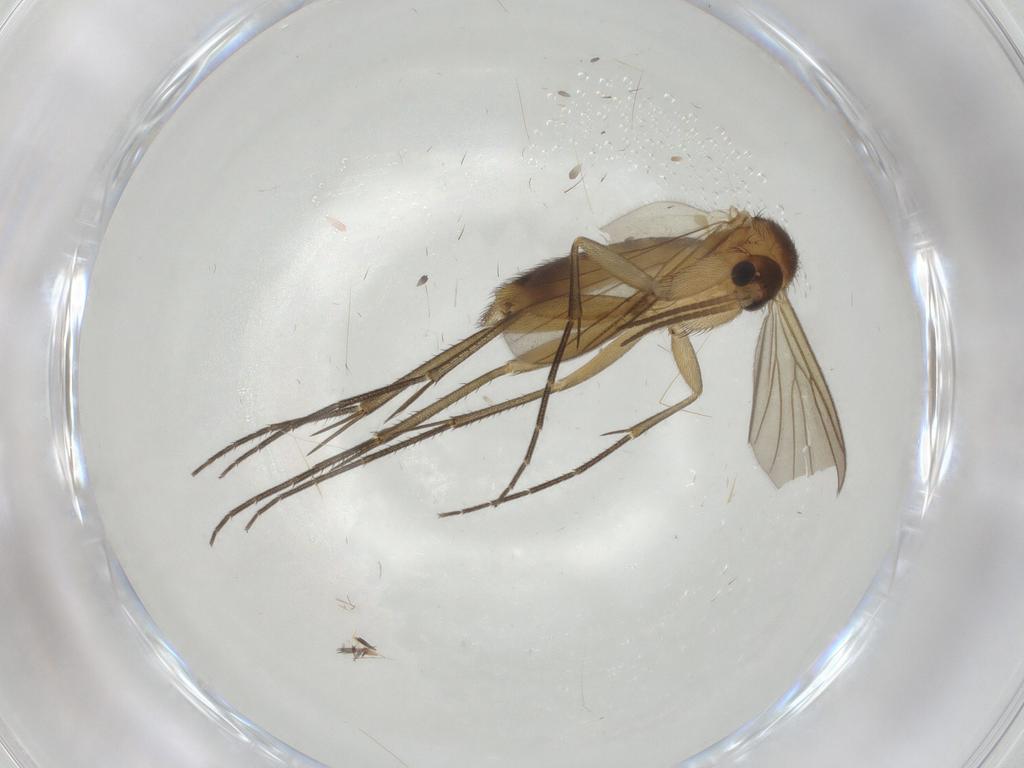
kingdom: Animalia
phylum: Arthropoda
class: Insecta
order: Diptera
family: Mycetophilidae
